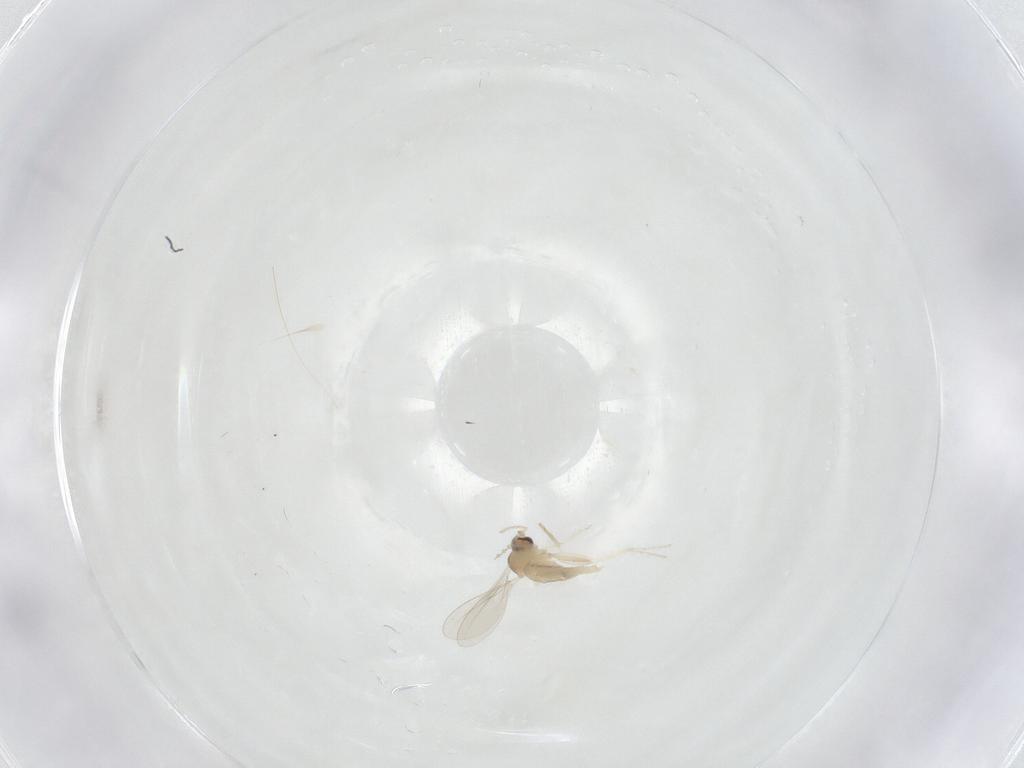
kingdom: Animalia
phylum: Arthropoda
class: Insecta
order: Diptera
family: Cecidomyiidae
